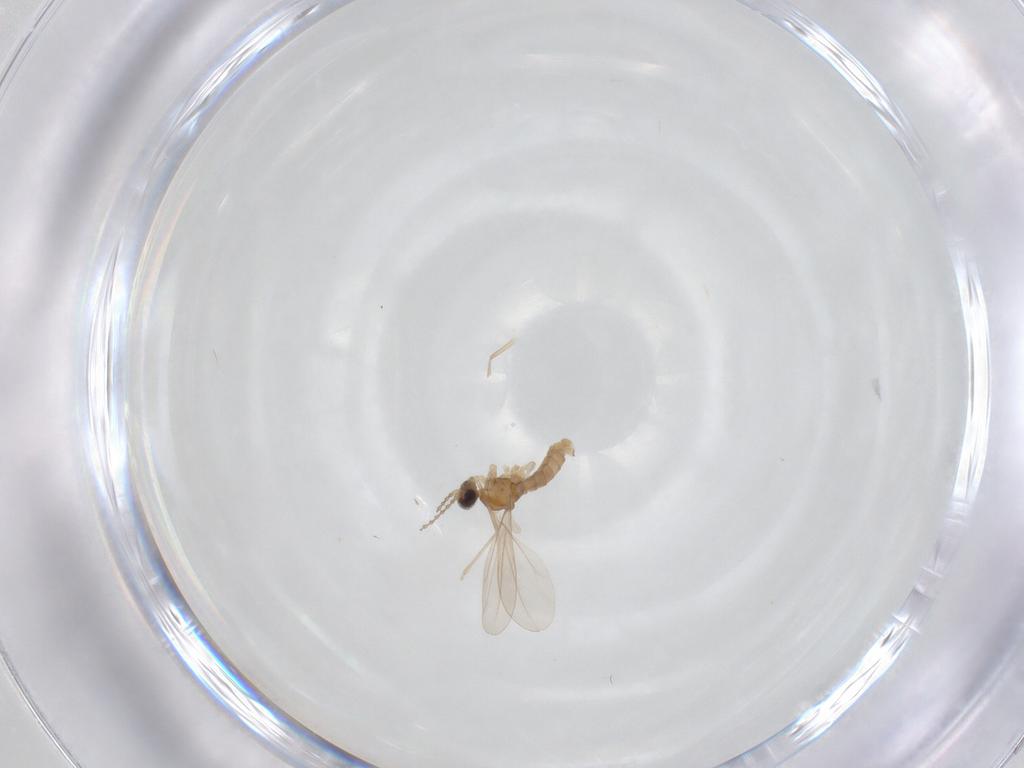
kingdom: Animalia
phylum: Arthropoda
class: Insecta
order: Diptera
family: Cecidomyiidae
